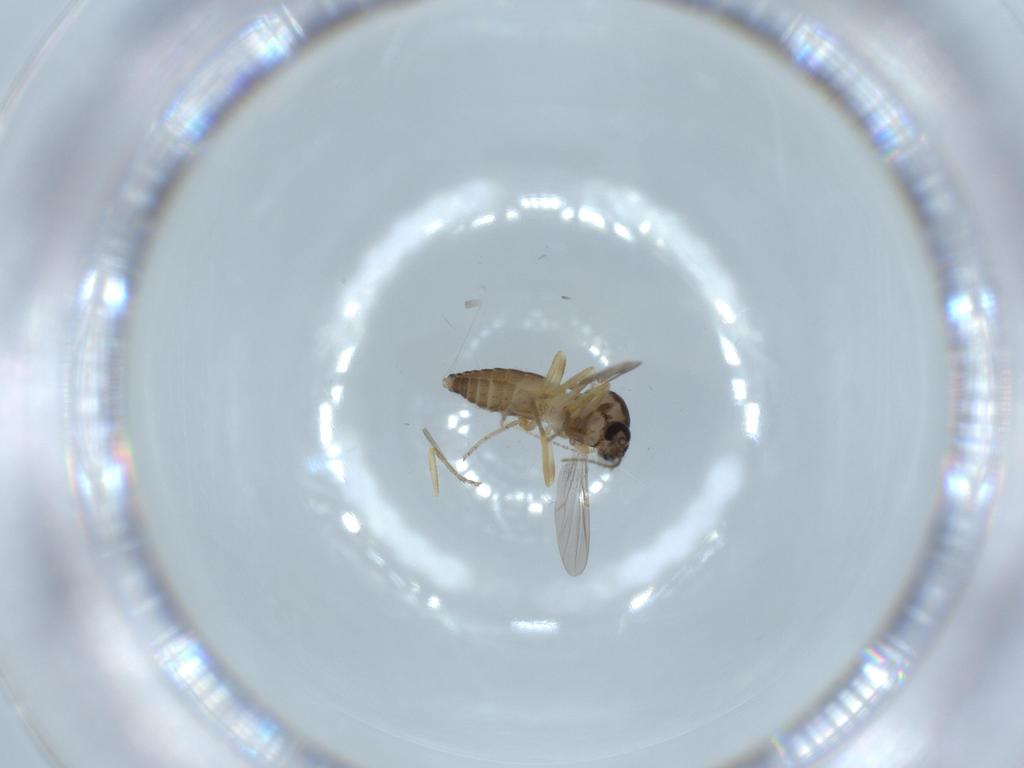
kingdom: Animalia
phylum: Arthropoda
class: Insecta
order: Diptera
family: Ceratopogonidae
